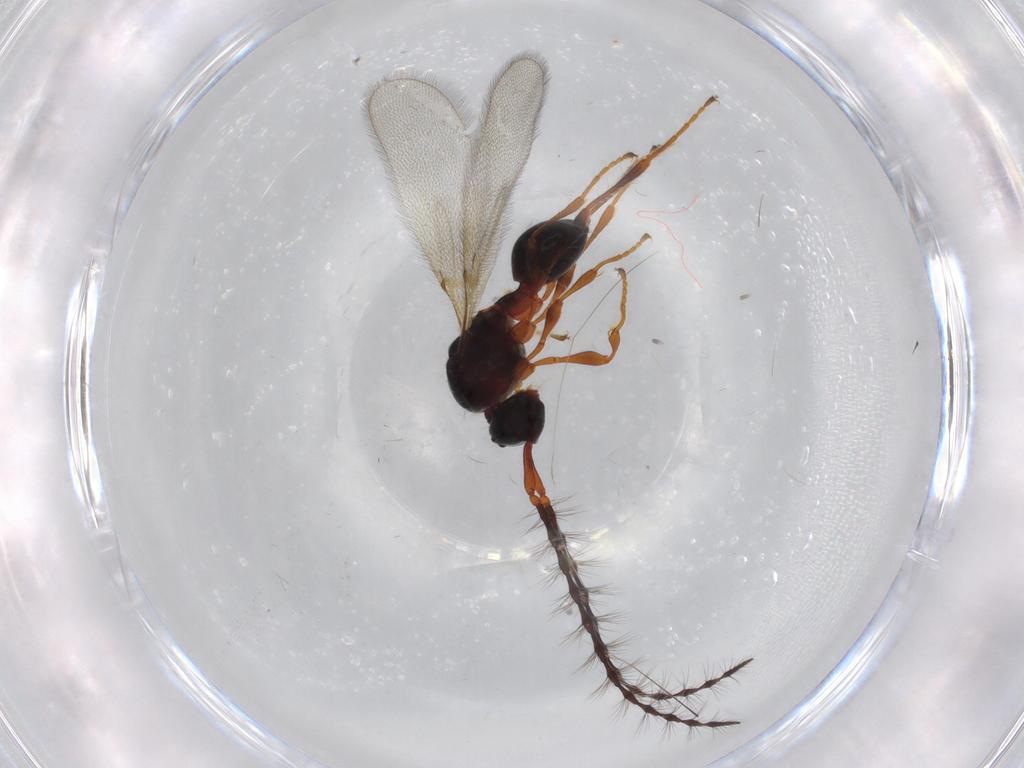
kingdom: Animalia
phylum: Arthropoda
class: Insecta
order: Hymenoptera
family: Diapriidae
